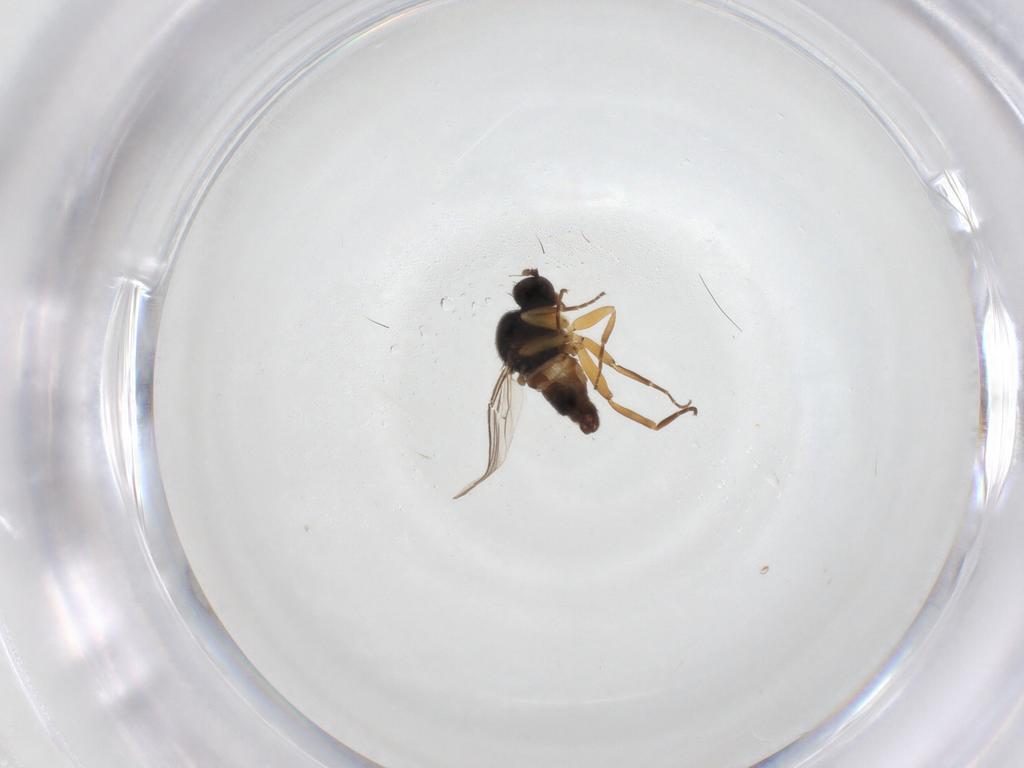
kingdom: Animalia
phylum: Arthropoda
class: Insecta
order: Diptera
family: Hybotidae
